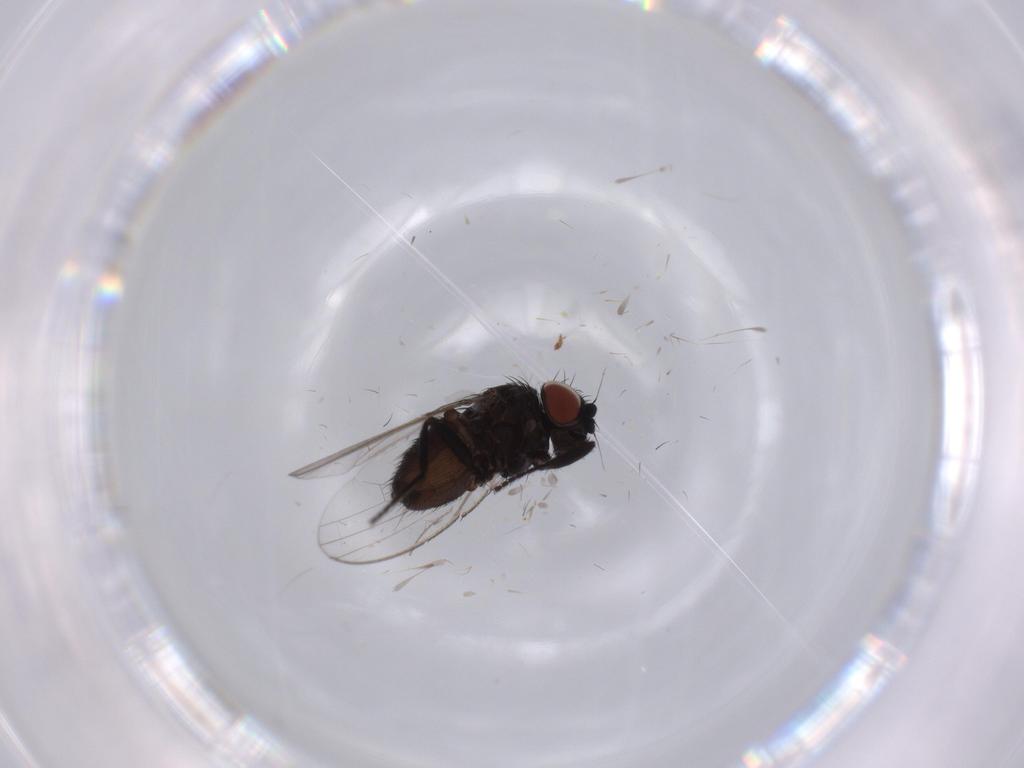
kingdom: Animalia
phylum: Arthropoda
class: Insecta
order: Diptera
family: Milichiidae
